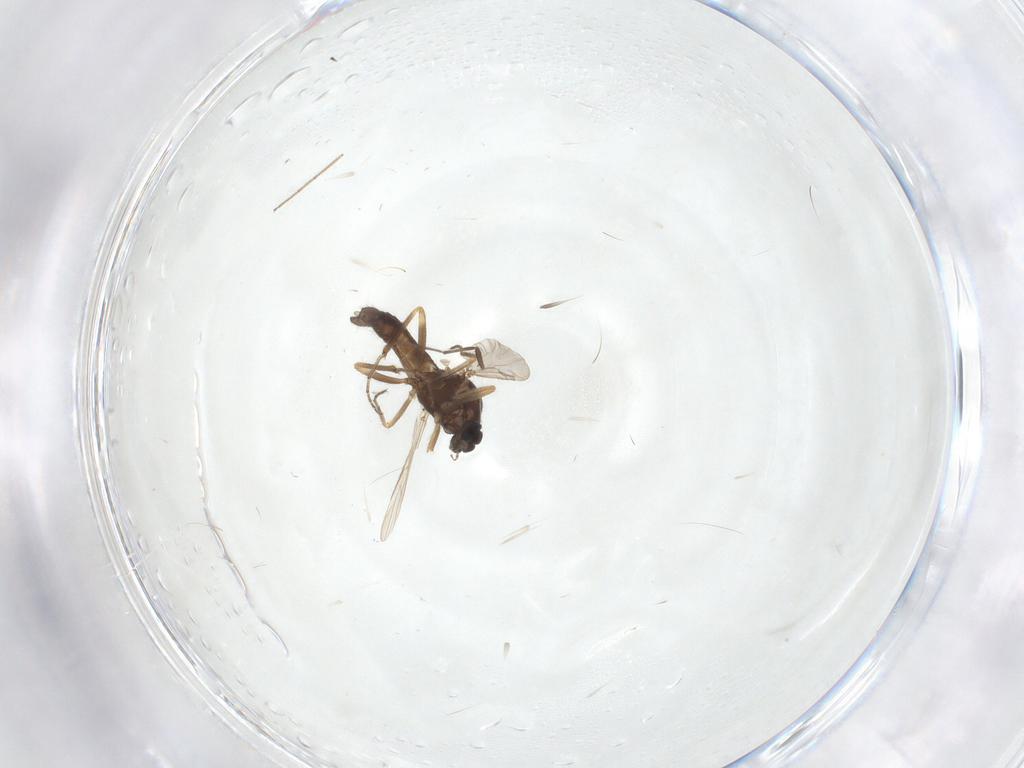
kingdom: Animalia
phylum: Arthropoda
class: Insecta
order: Diptera
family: Ceratopogonidae
